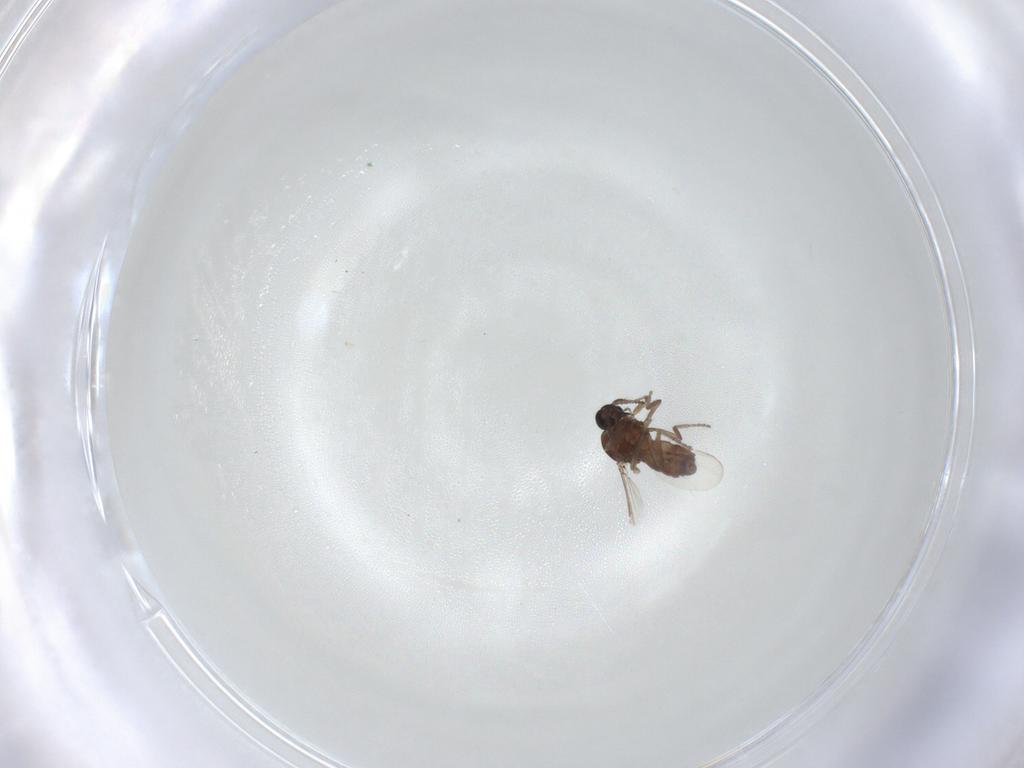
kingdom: Animalia
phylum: Arthropoda
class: Insecta
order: Diptera
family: Ceratopogonidae
